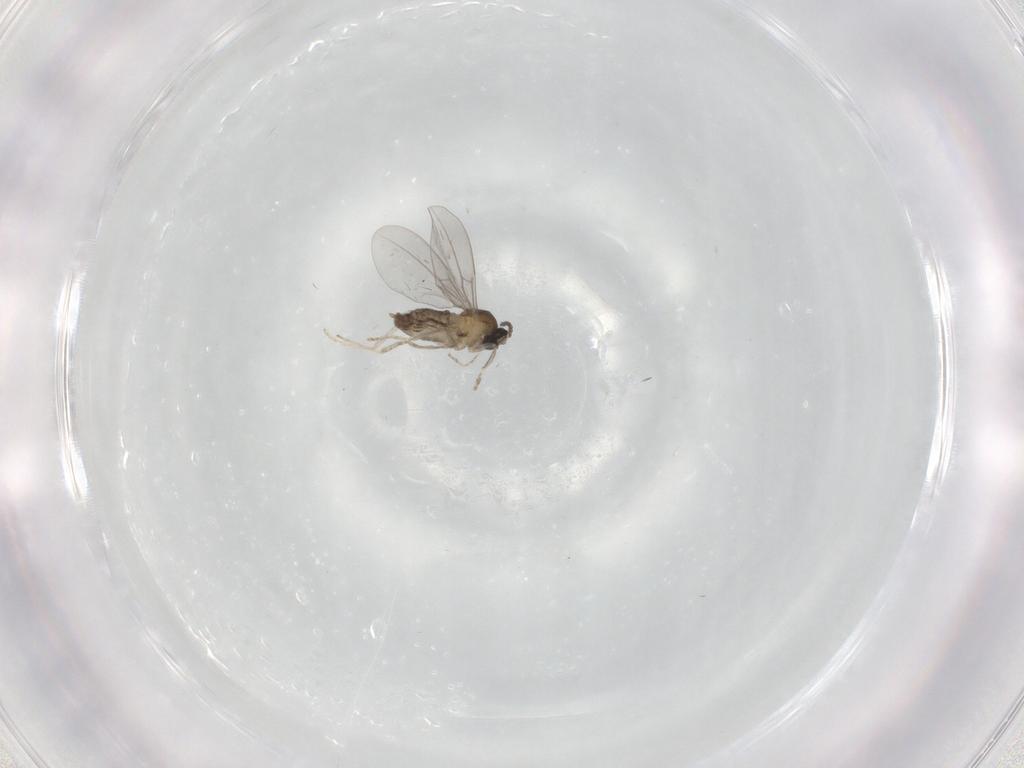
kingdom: Animalia
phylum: Arthropoda
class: Insecta
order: Diptera
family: Cecidomyiidae
